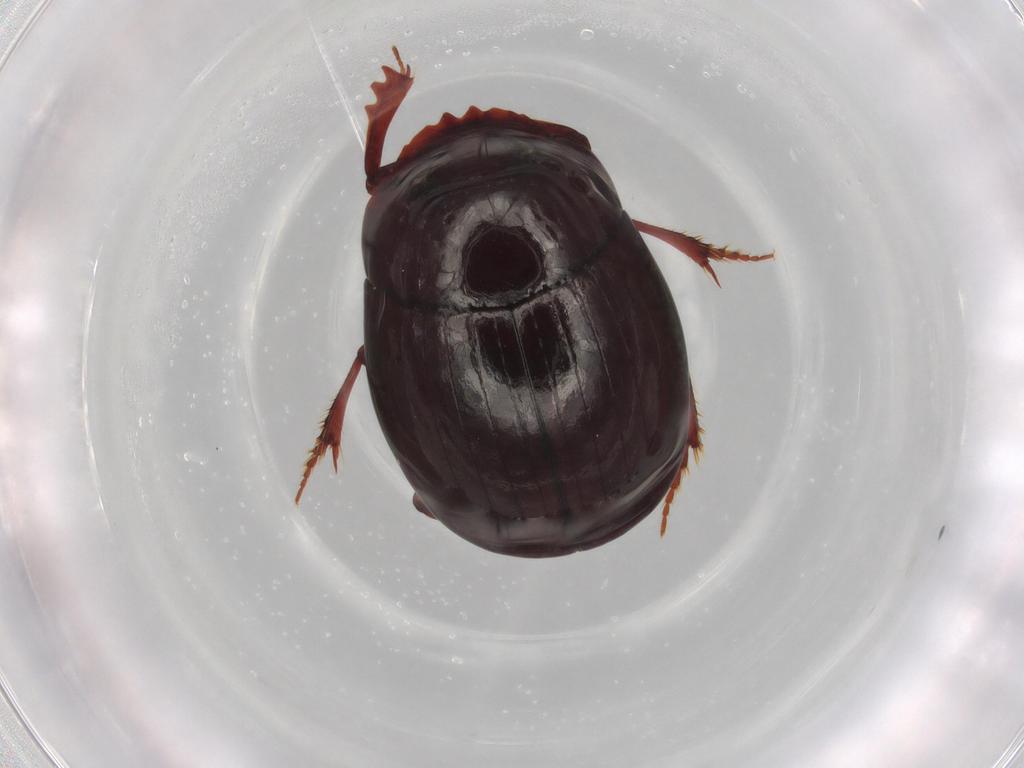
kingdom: Animalia
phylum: Arthropoda
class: Insecta
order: Coleoptera
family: Scarabaeidae
